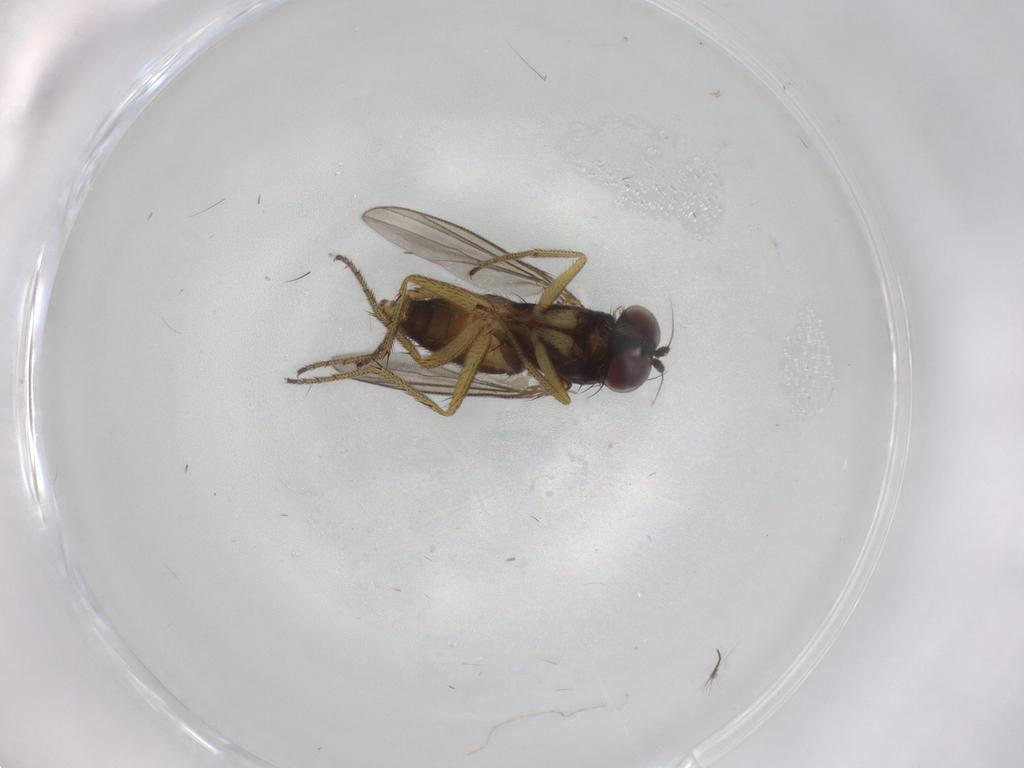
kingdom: Animalia
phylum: Arthropoda
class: Insecta
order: Diptera
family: Dolichopodidae
